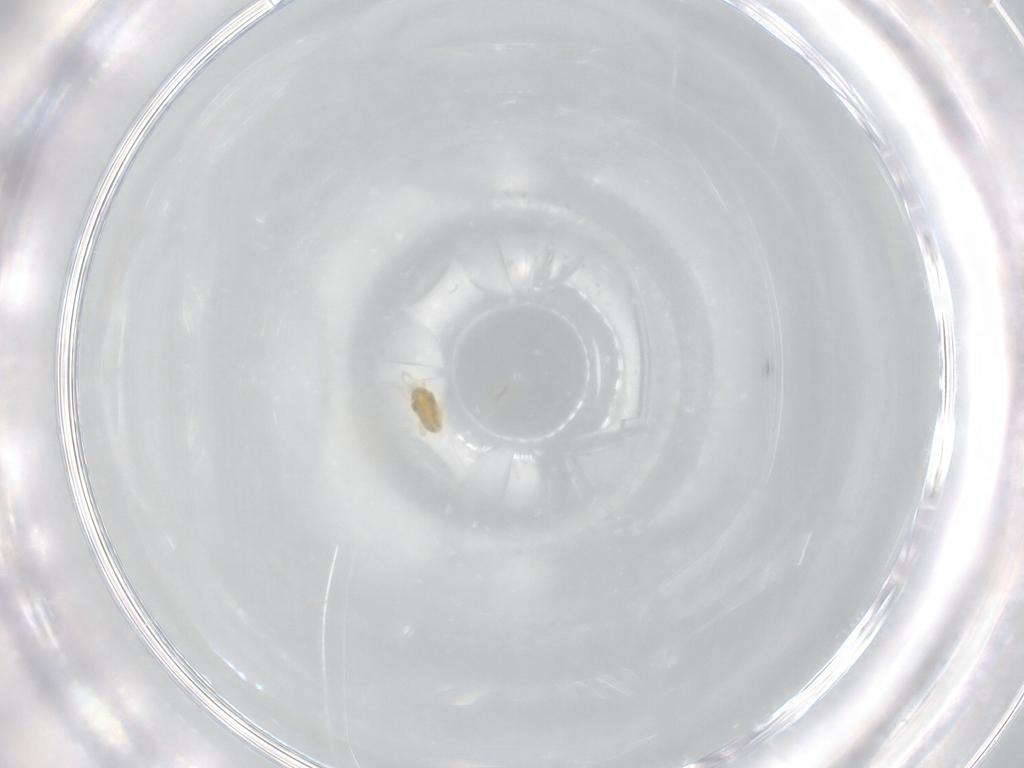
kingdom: Animalia
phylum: Arthropoda
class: Arachnida
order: Trombidiformes
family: Eupodidae
